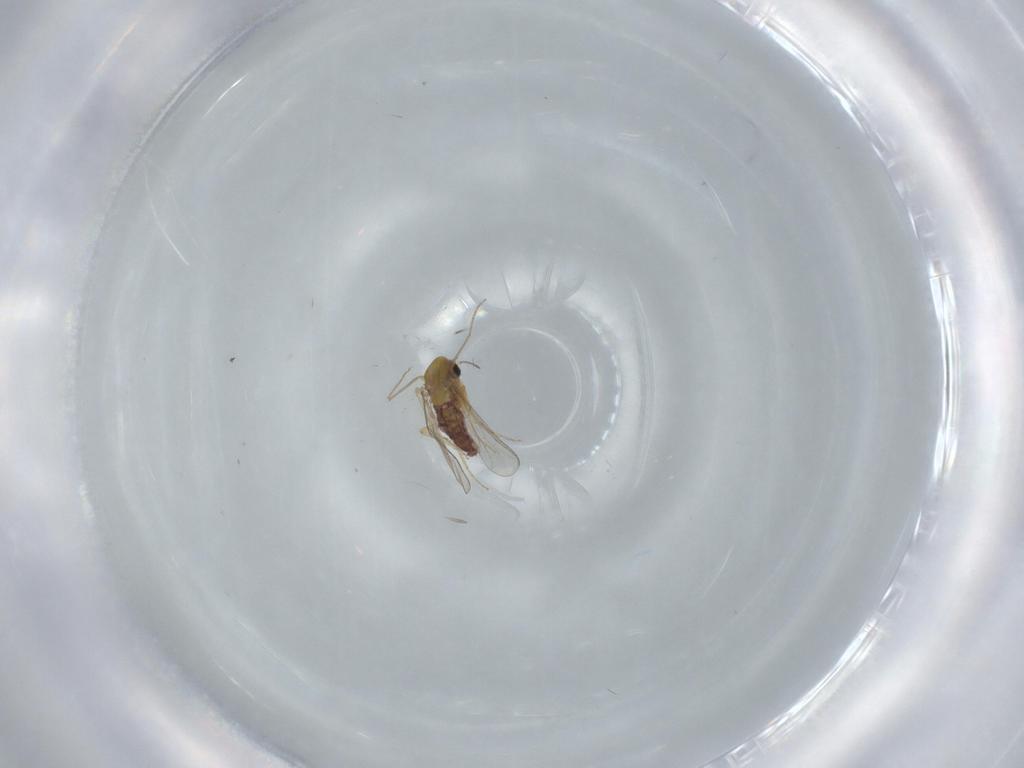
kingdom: Animalia
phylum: Arthropoda
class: Insecta
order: Diptera
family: Chironomidae
